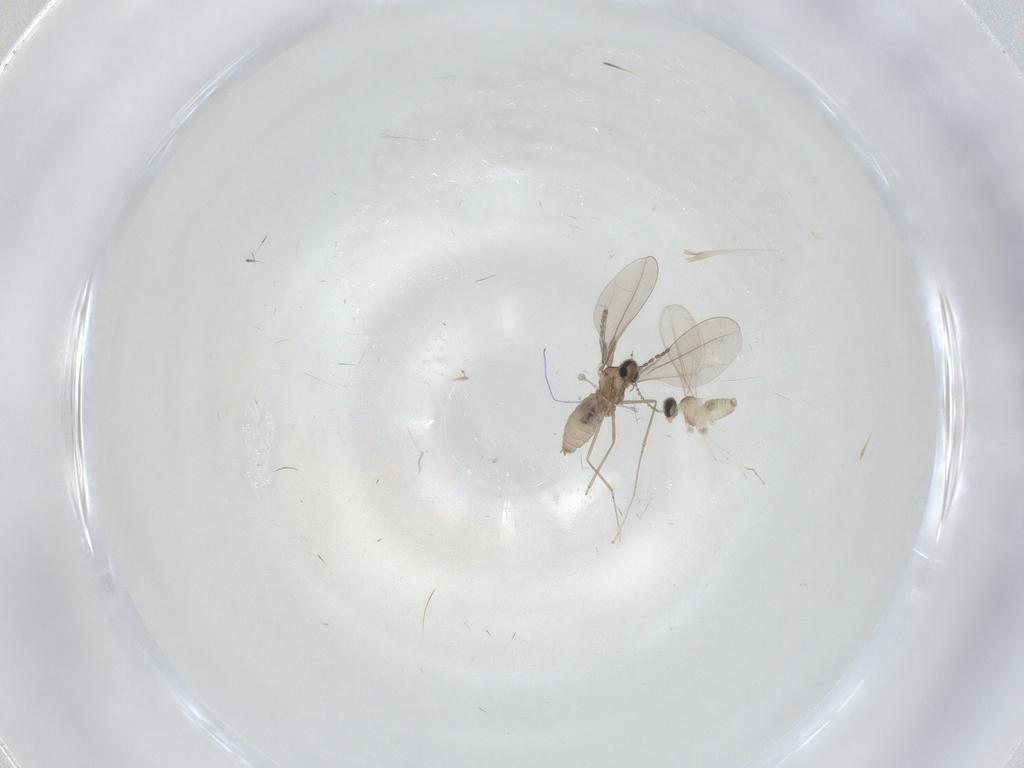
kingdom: Animalia
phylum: Arthropoda
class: Insecta
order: Diptera
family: Cecidomyiidae
